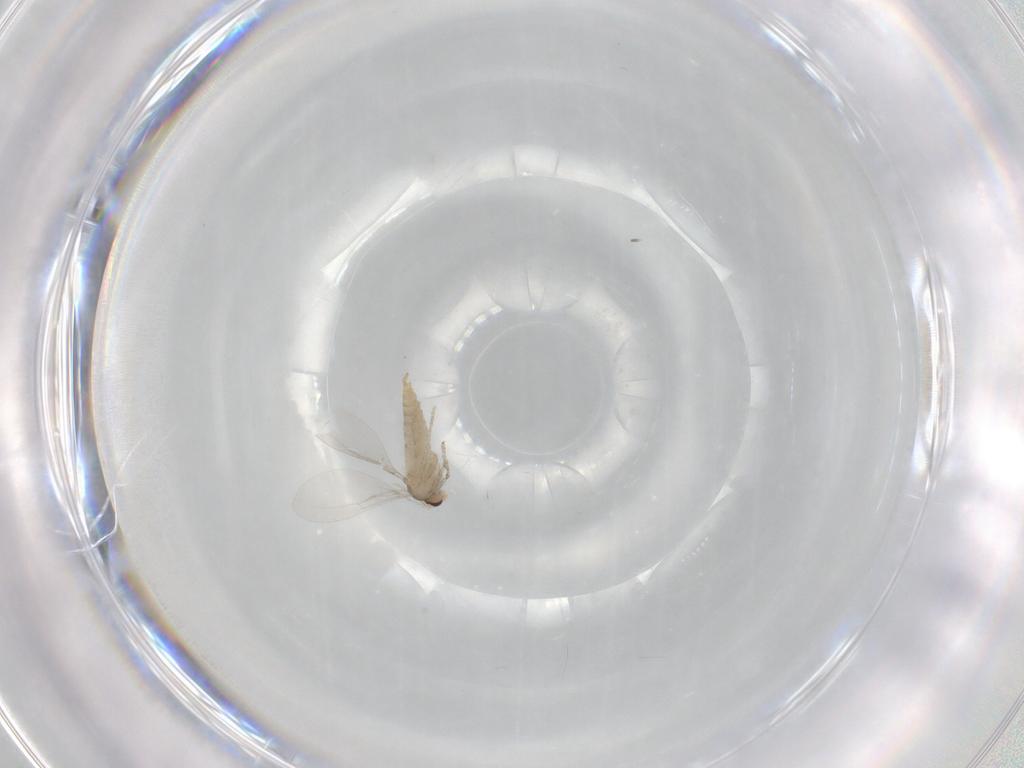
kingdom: Animalia
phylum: Arthropoda
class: Insecta
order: Diptera
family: Cecidomyiidae
